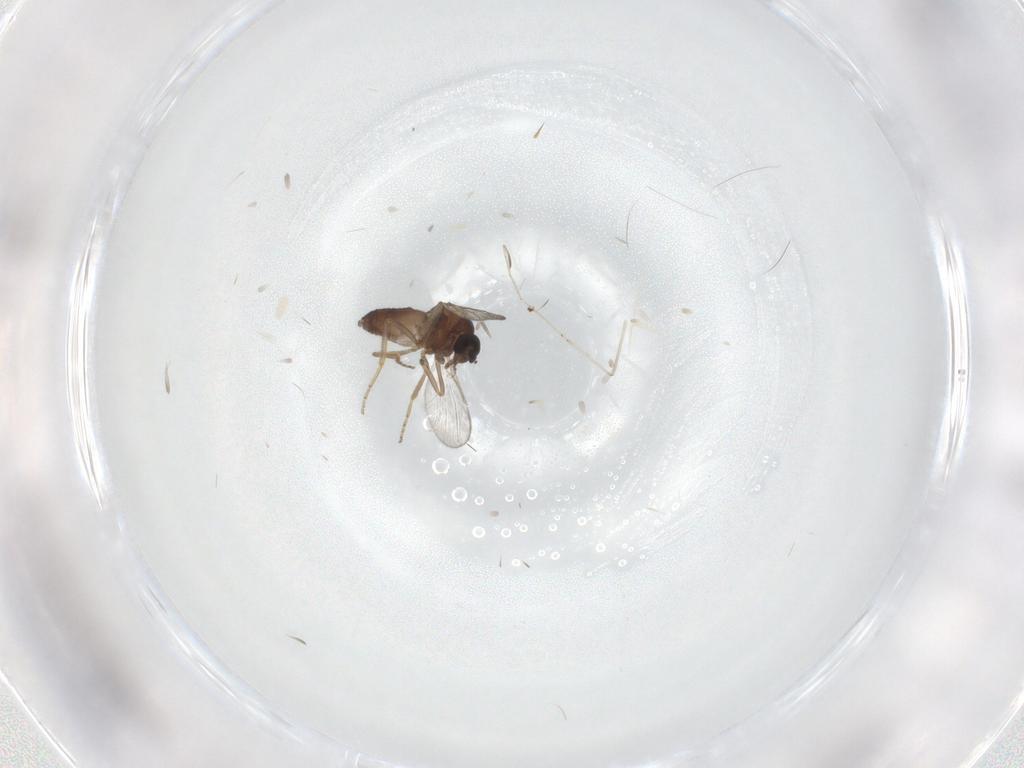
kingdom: Animalia
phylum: Arthropoda
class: Insecta
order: Diptera
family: Ceratopogonidae
